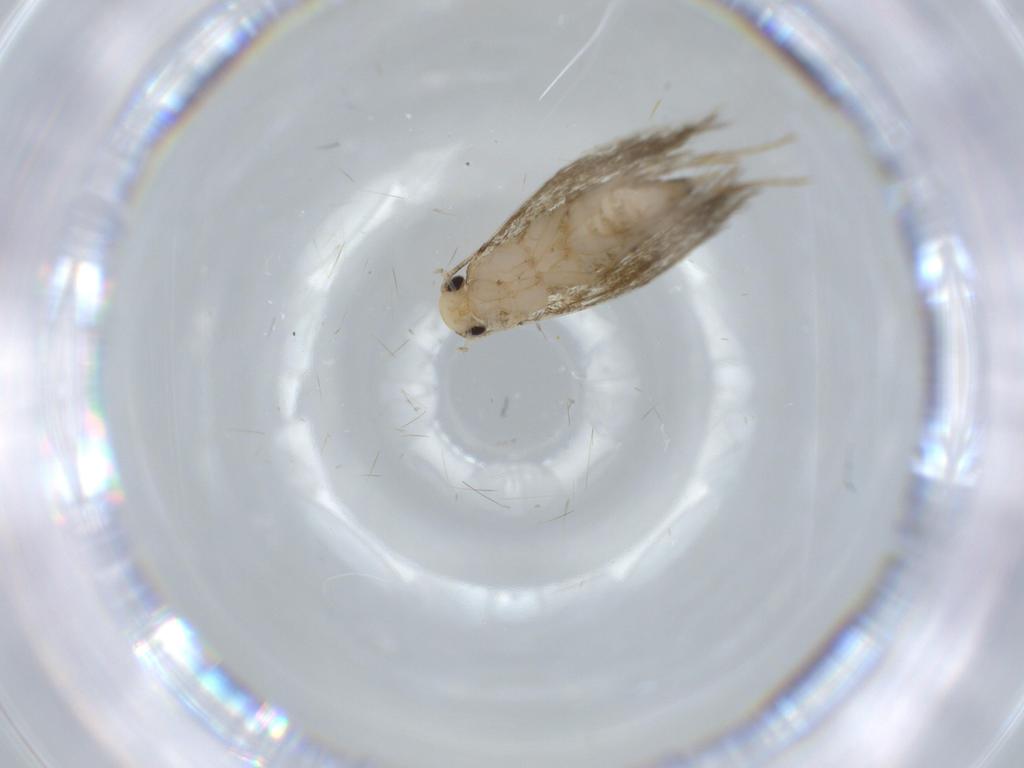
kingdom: Animalia
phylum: Arthropoda
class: Insecta
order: Lepidoptera
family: Tineidae
